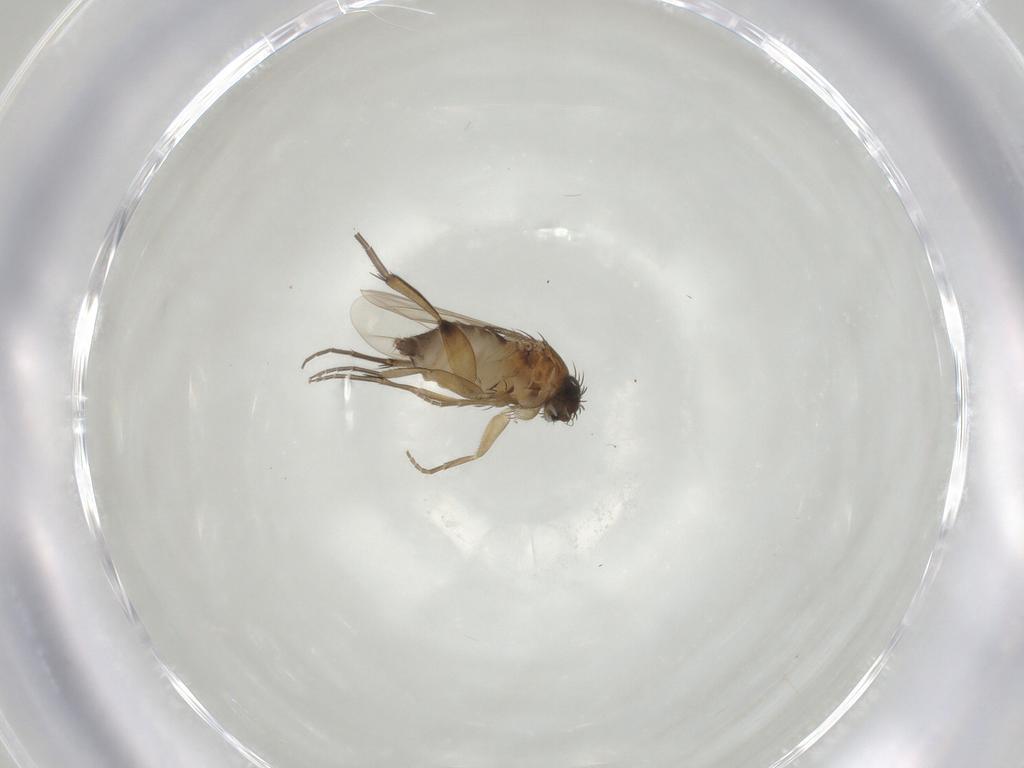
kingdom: Animalia
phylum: Arthropoda
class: Insecta
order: Diptera
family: Phoridae
